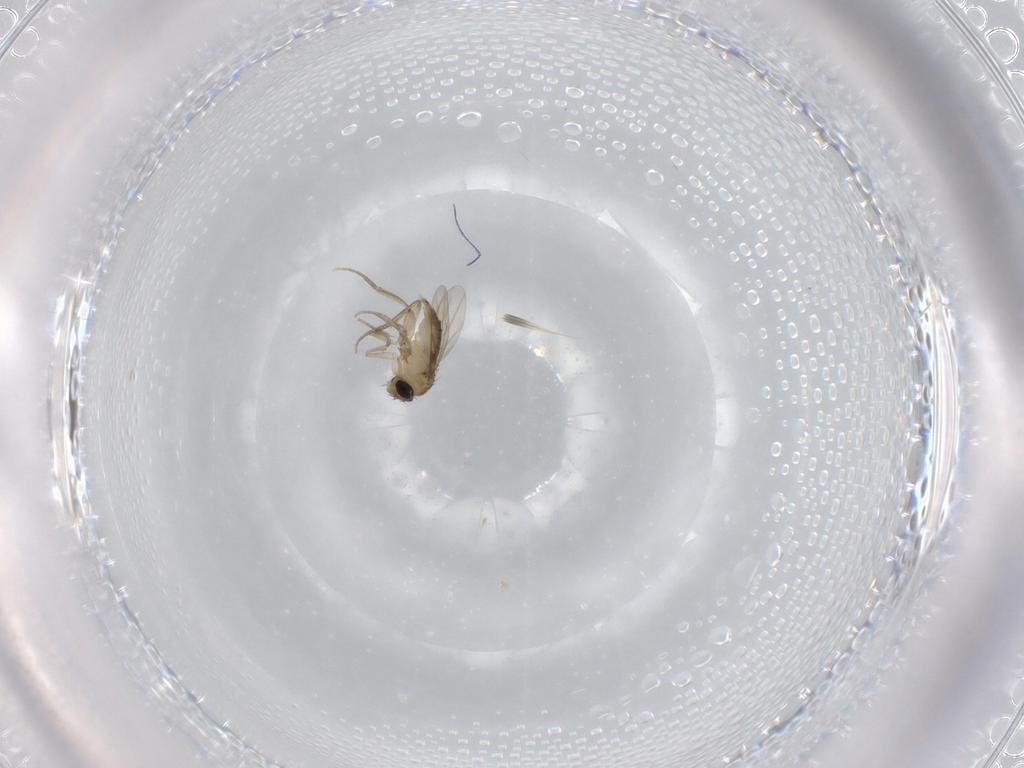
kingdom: Animalia
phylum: Arthropoda
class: Insecta
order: Diptera
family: Phoridae
